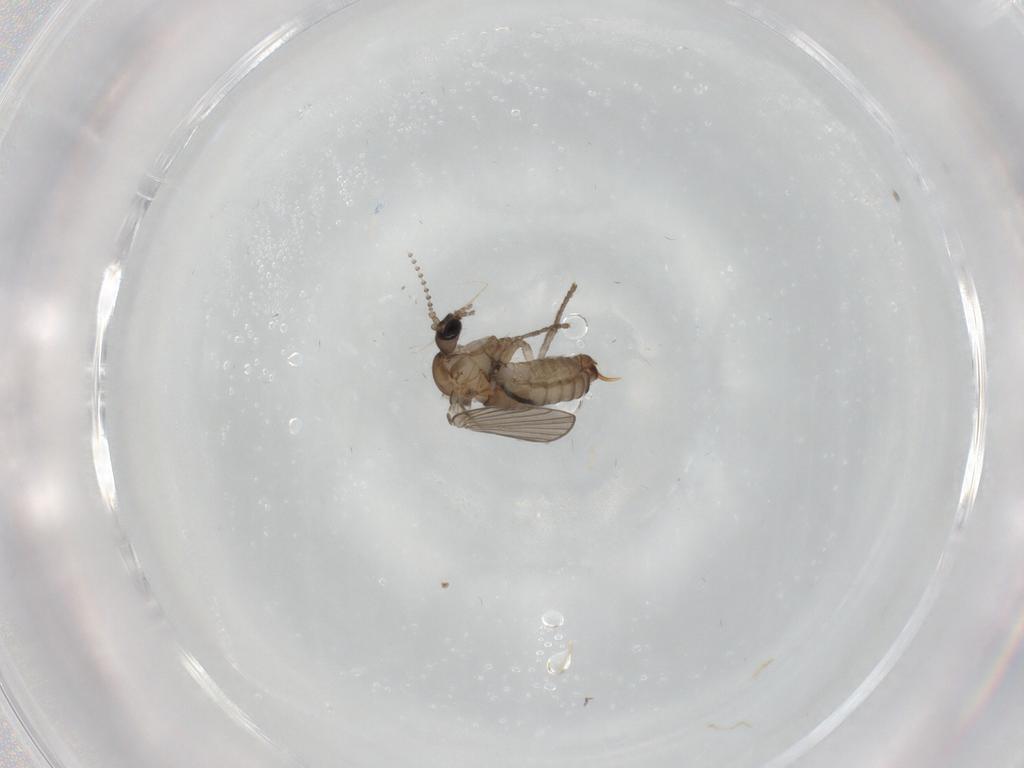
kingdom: Animalia
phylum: Arthropoda
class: Insecta
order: Diptera
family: Psychodidae
